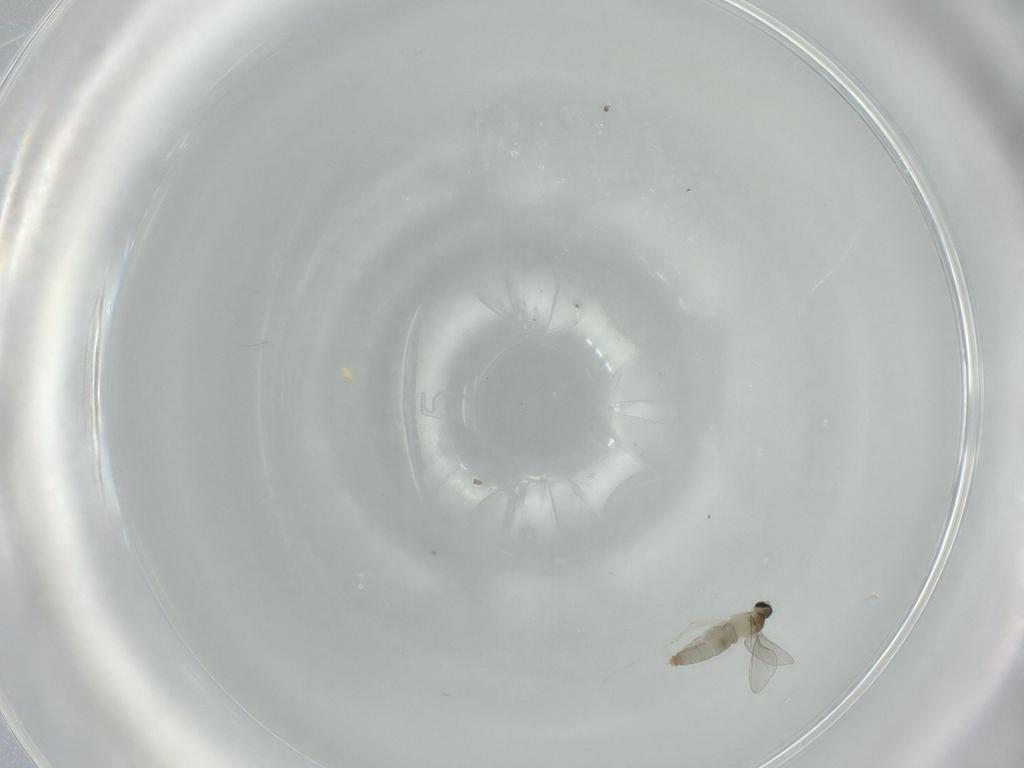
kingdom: Animalia
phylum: Arthropoda
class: Insecta
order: Diptera
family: Cecidomyiidae
